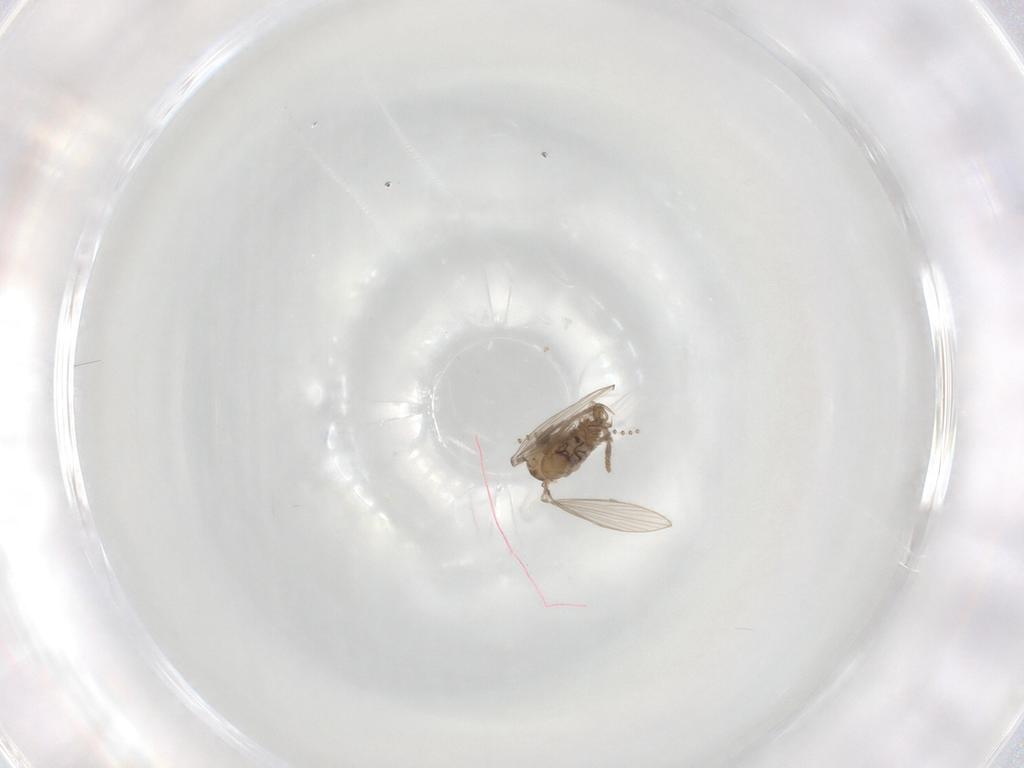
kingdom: Animalia
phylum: Arthropoda
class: Insecta
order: Diptera
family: Psychodidae
